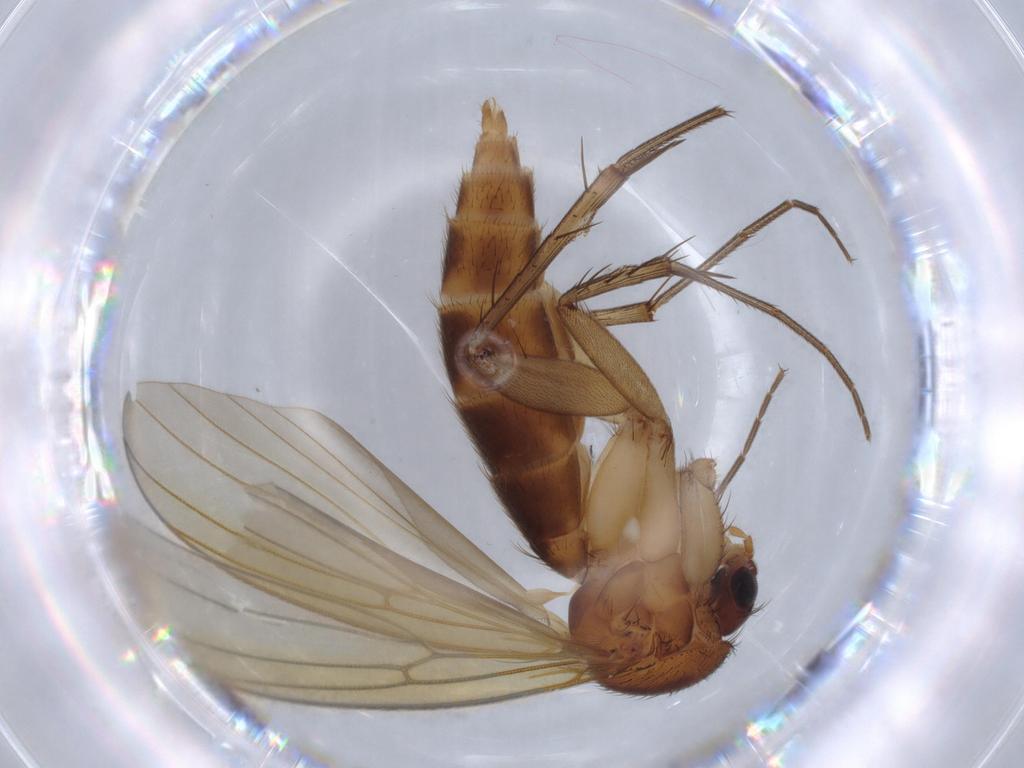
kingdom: Animalia
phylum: Arthropoda
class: Insecta
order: Diptera
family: Mycetophilidae
